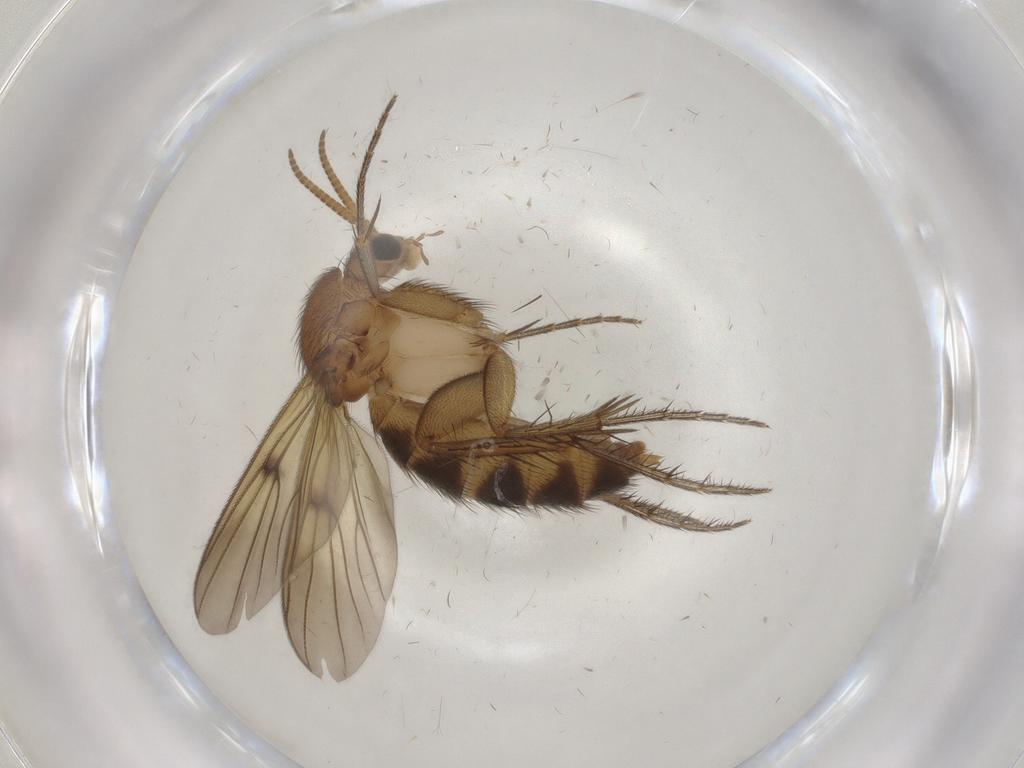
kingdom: Animalia
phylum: Arthropoda
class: Insecta
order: Diptera
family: Mycetophilidae
